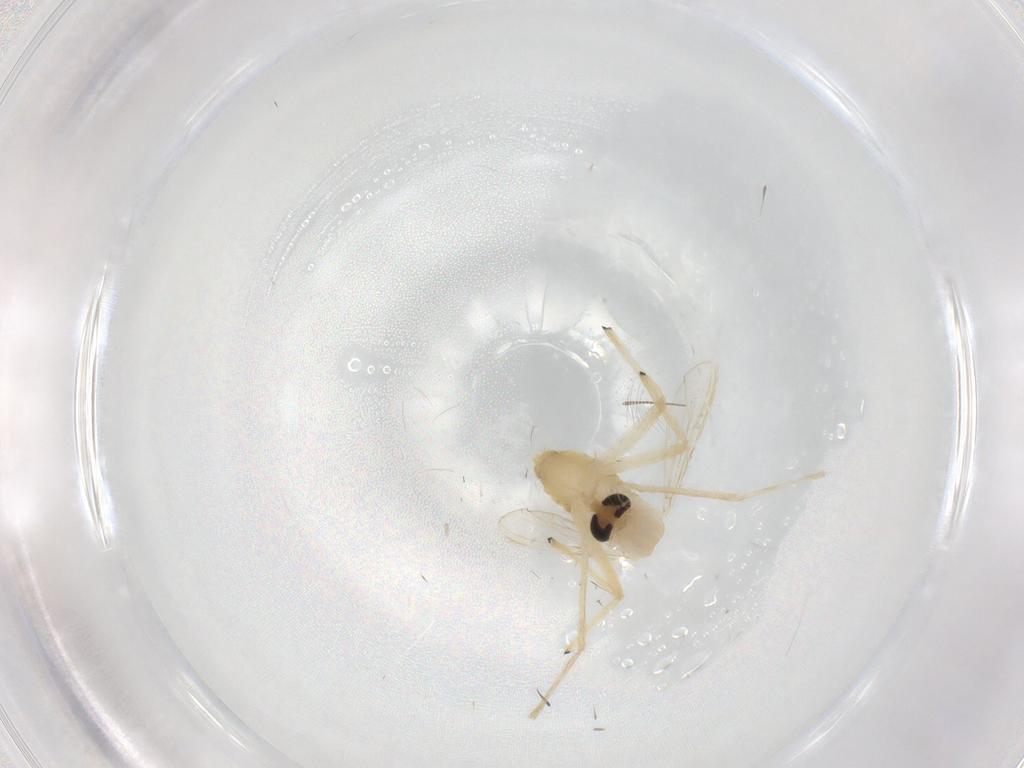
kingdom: Animalia
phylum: Arthropoda
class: Insecta
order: Diptera
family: Chironomidae
